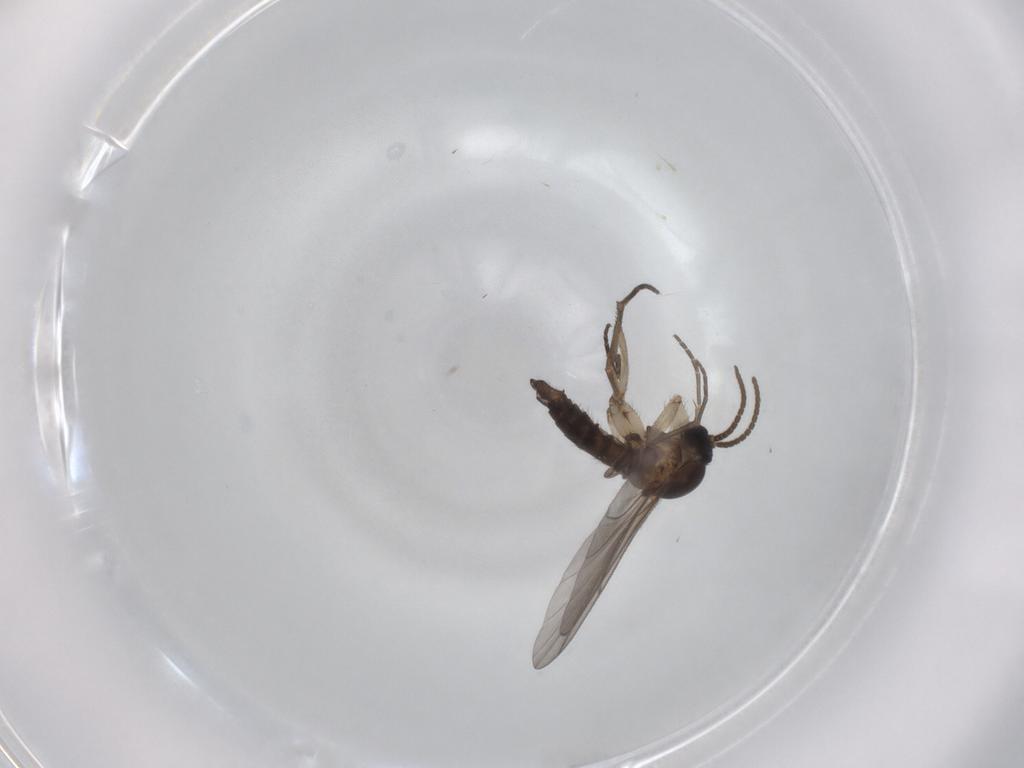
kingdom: Animalia
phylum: Arthropoda
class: Insecta
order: Diptera
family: Sciaridae
